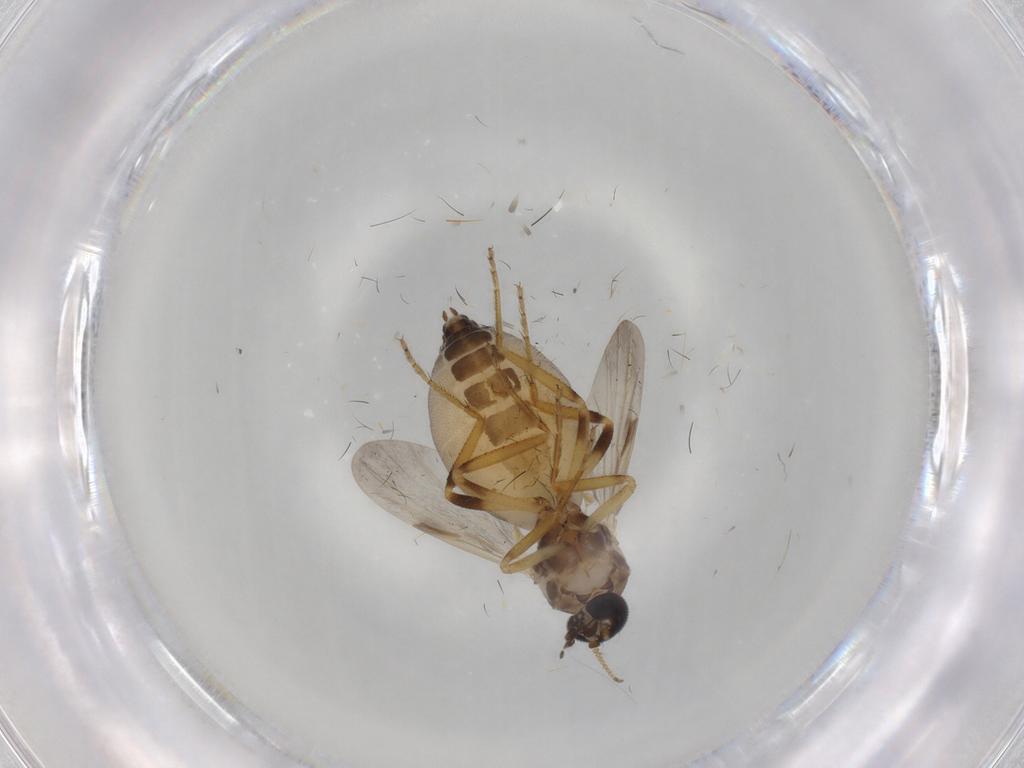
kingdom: Animalia
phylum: Arthropoda
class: Insecta
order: Diptera
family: Ceratopogonidae
